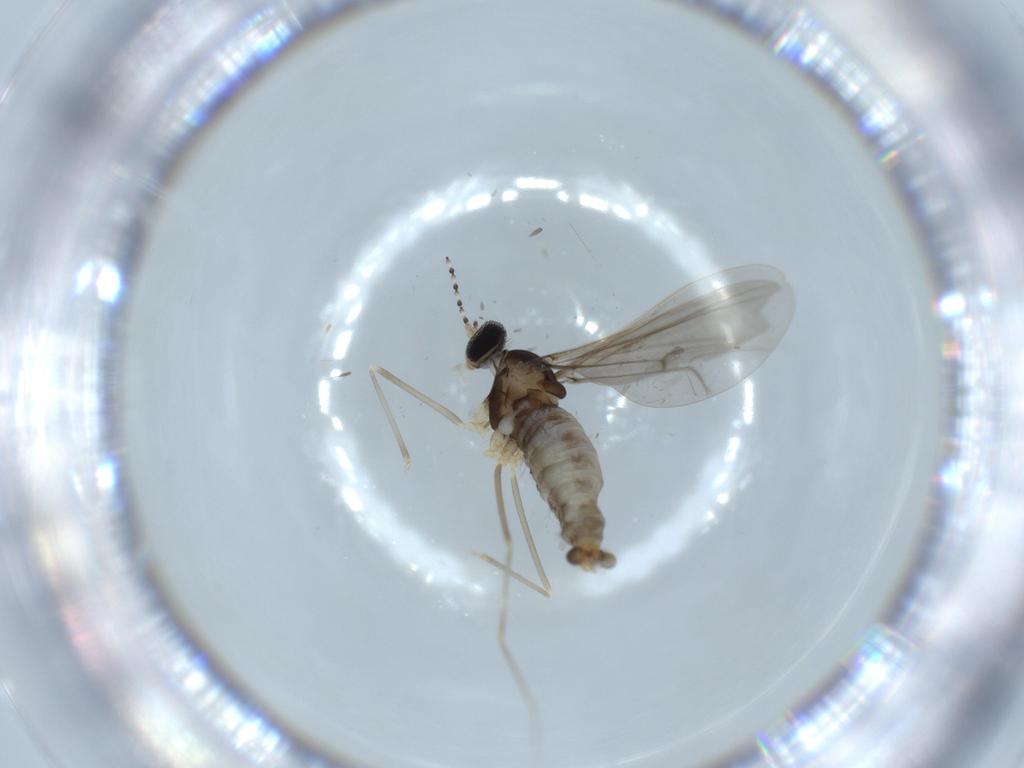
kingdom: Animalia
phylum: Arthropoda
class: Insecta
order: Diptera
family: Cecidomyiidae
